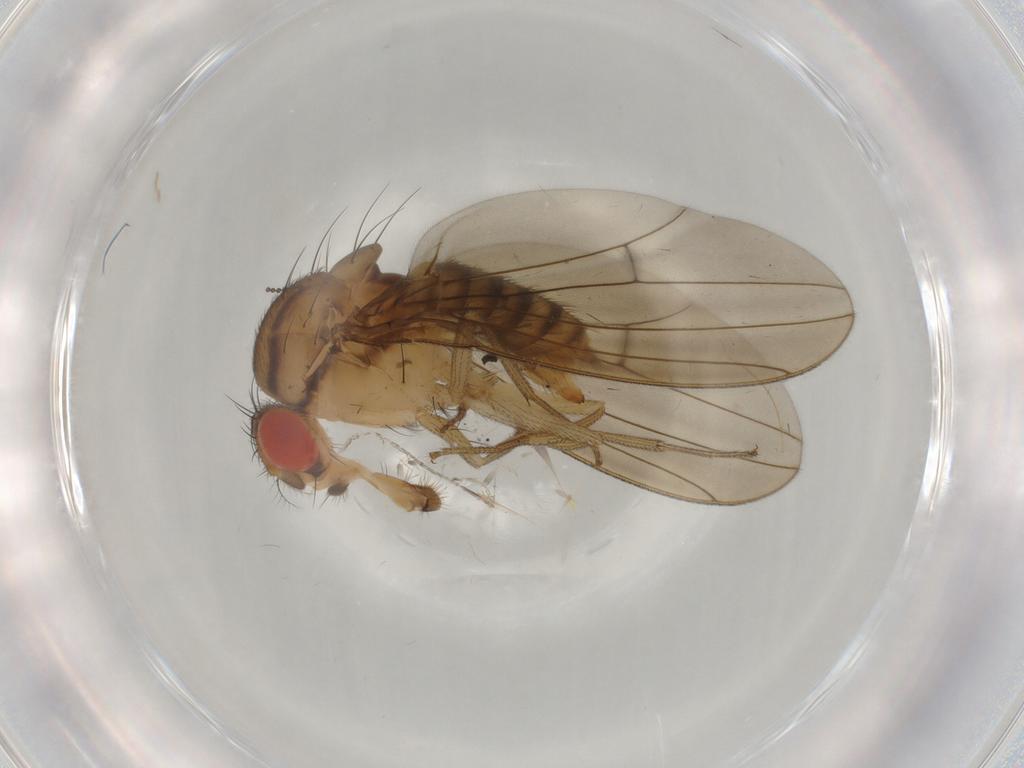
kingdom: Animalia
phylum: Arthropoda
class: Insecta
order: Diptera
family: Drosophilidae
